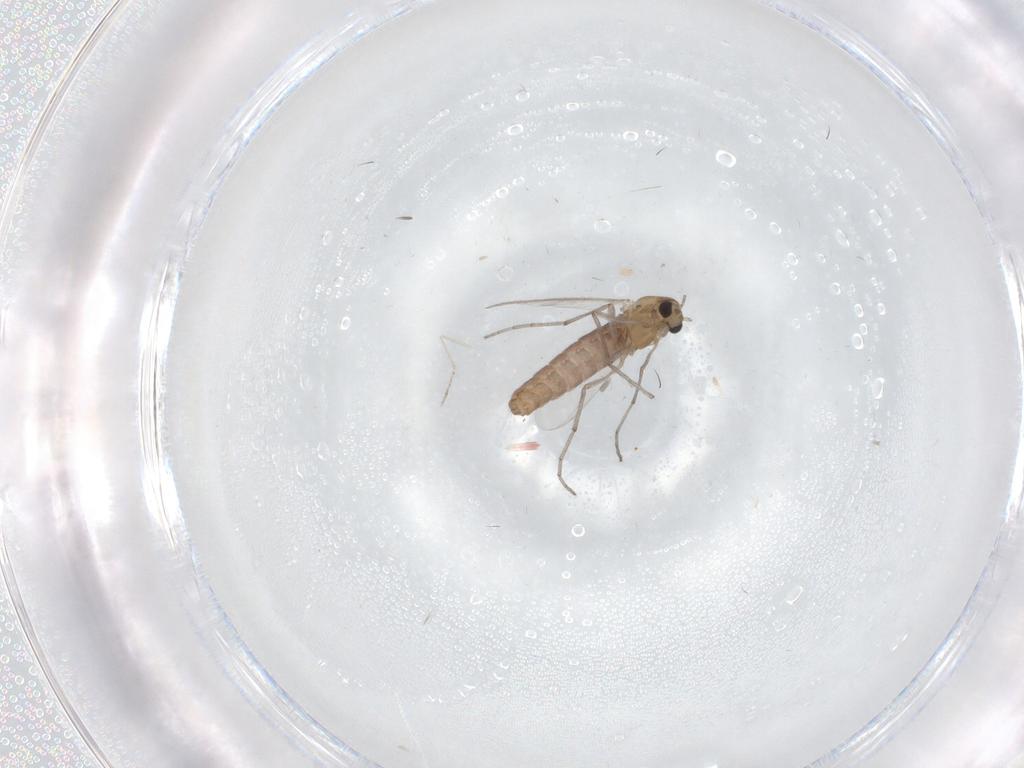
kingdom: Animalia
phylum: Arthropoda
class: Insecta
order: Diptera
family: Chironomidae
